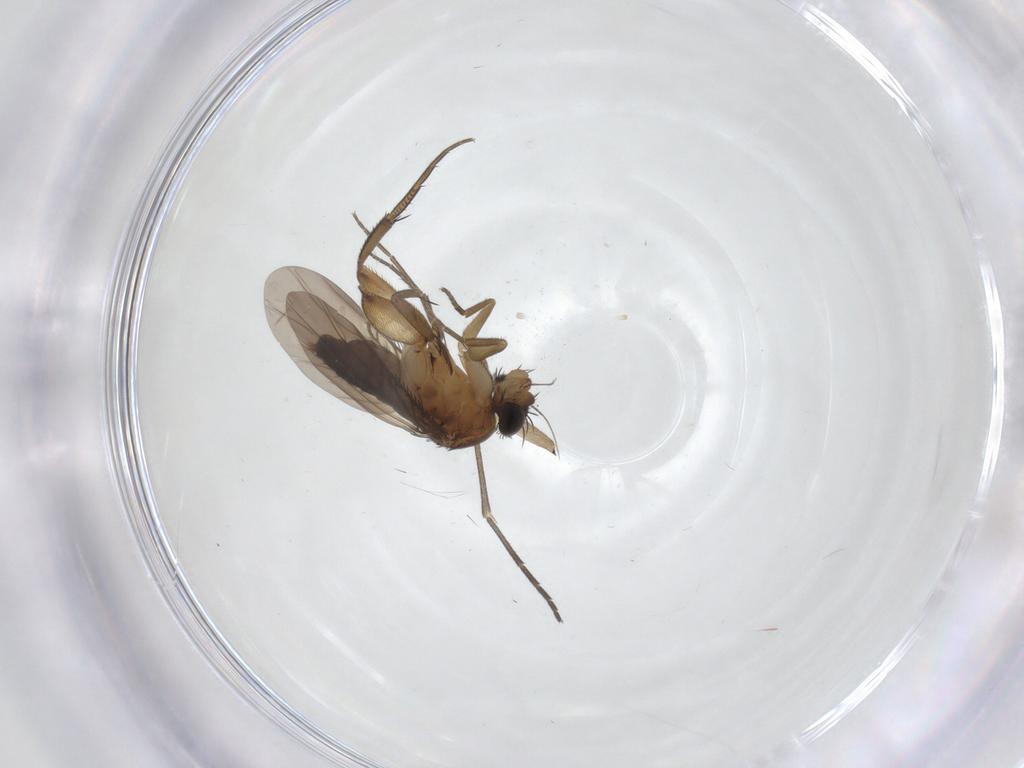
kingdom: Animalia
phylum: Arthropoda
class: Insecta
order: Diptera
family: Phoridae
